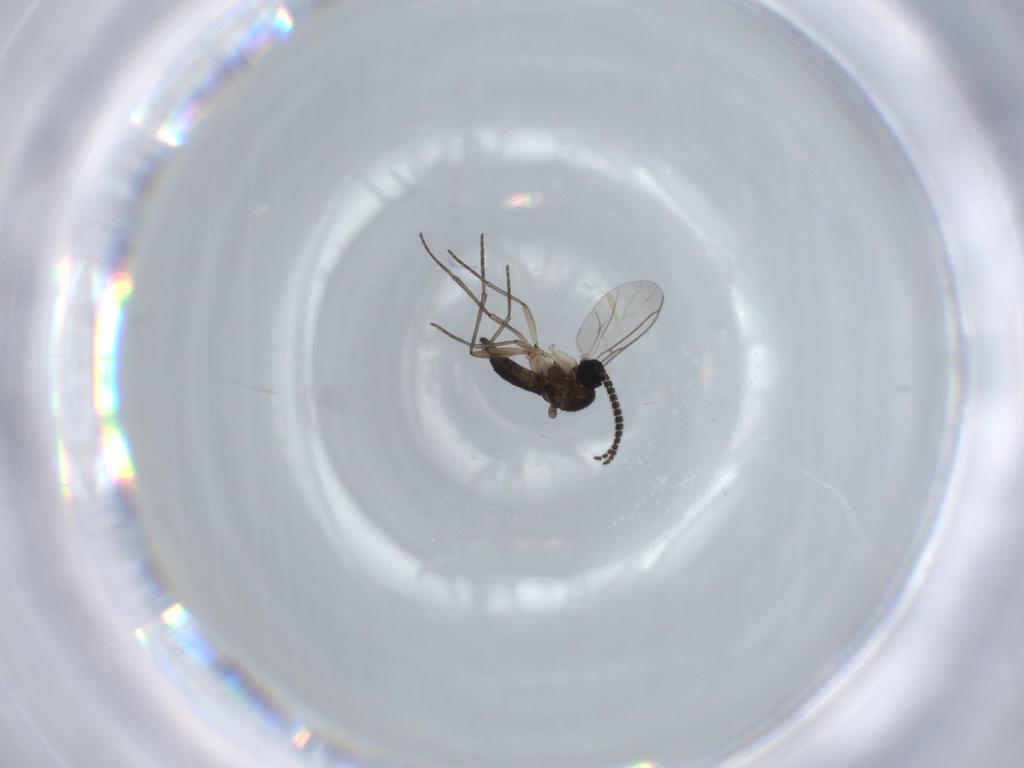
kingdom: Animalia
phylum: Arthropoda
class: Insecta
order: Diptera
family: Sciaridae
